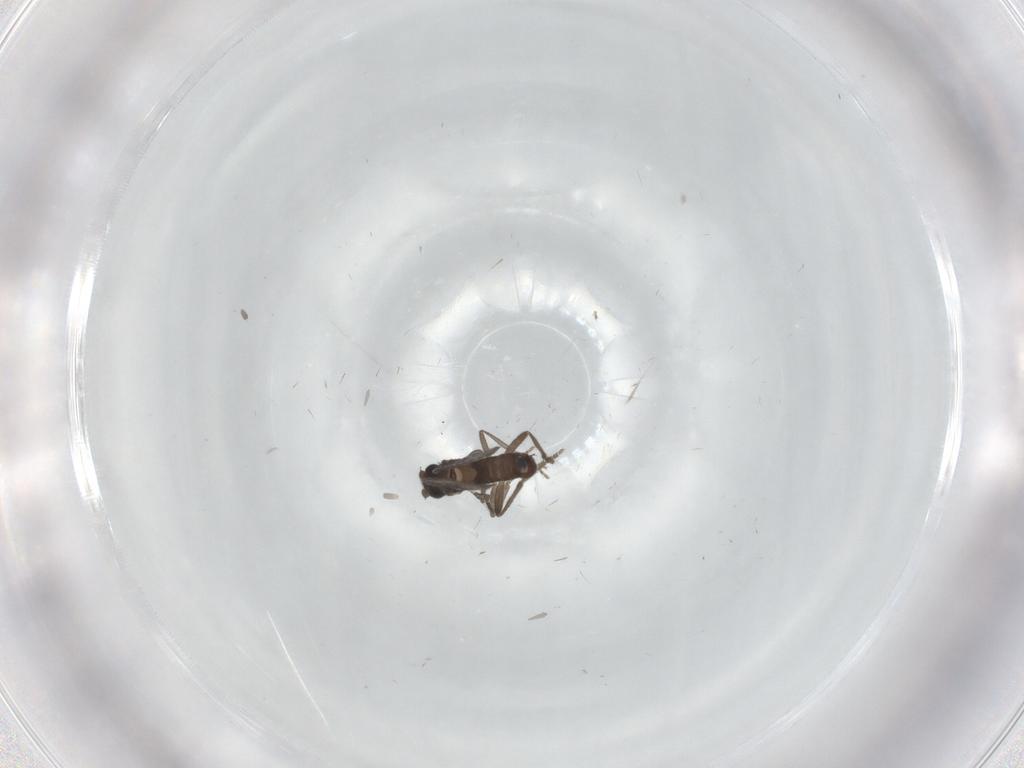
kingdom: Animalia
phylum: Arthropoda
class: Insecta
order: Diptera
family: Phoridae
